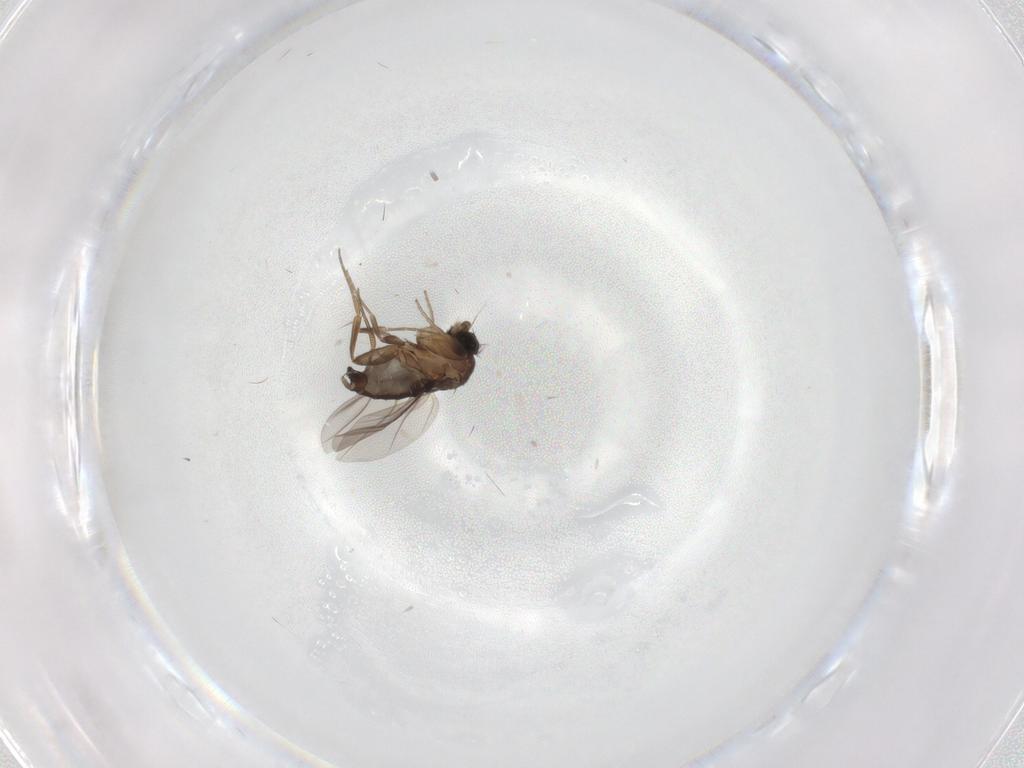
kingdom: Animalia
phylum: Arthropoda
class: Insecta
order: Diptera
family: Phoridae
